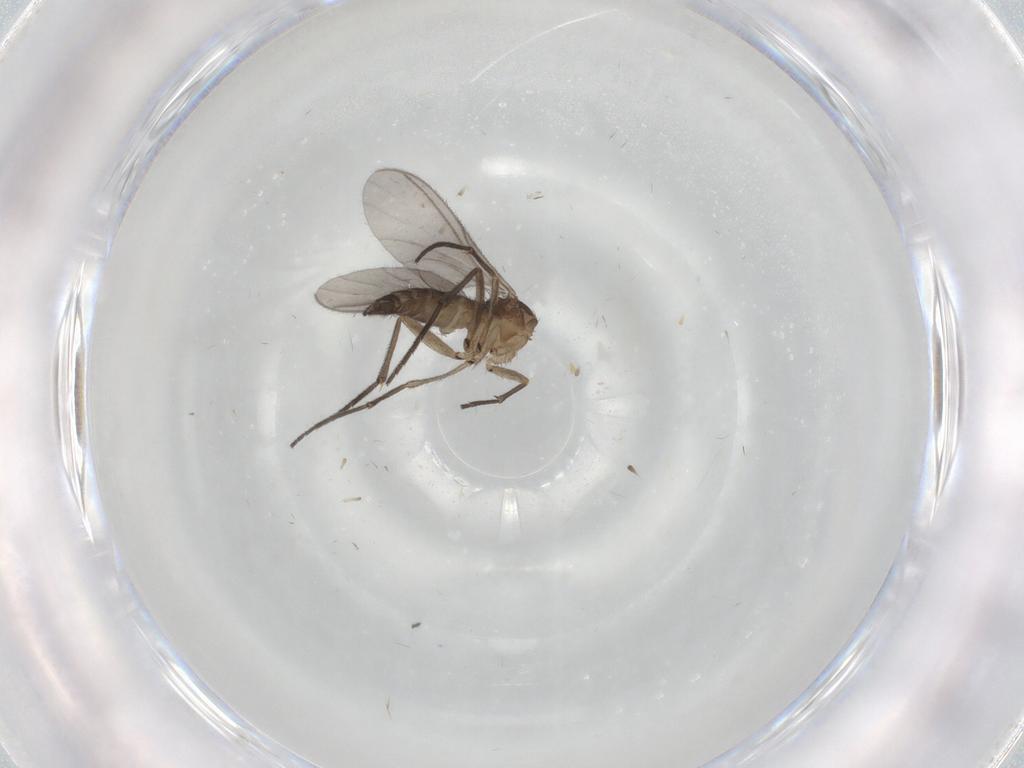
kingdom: Animalia
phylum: Arthropoda
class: Insecta
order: Diptera
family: Sciaridae
